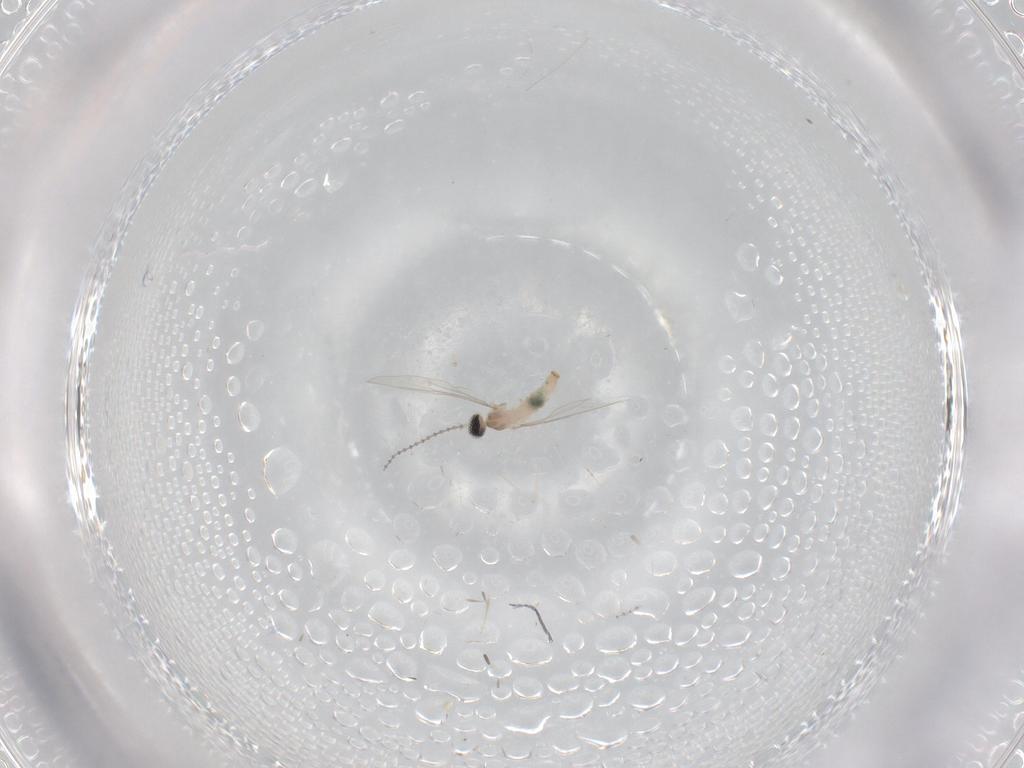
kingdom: Animalia
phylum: Arthropoda
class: Insecta
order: Diptera
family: Cecidomyiidae
